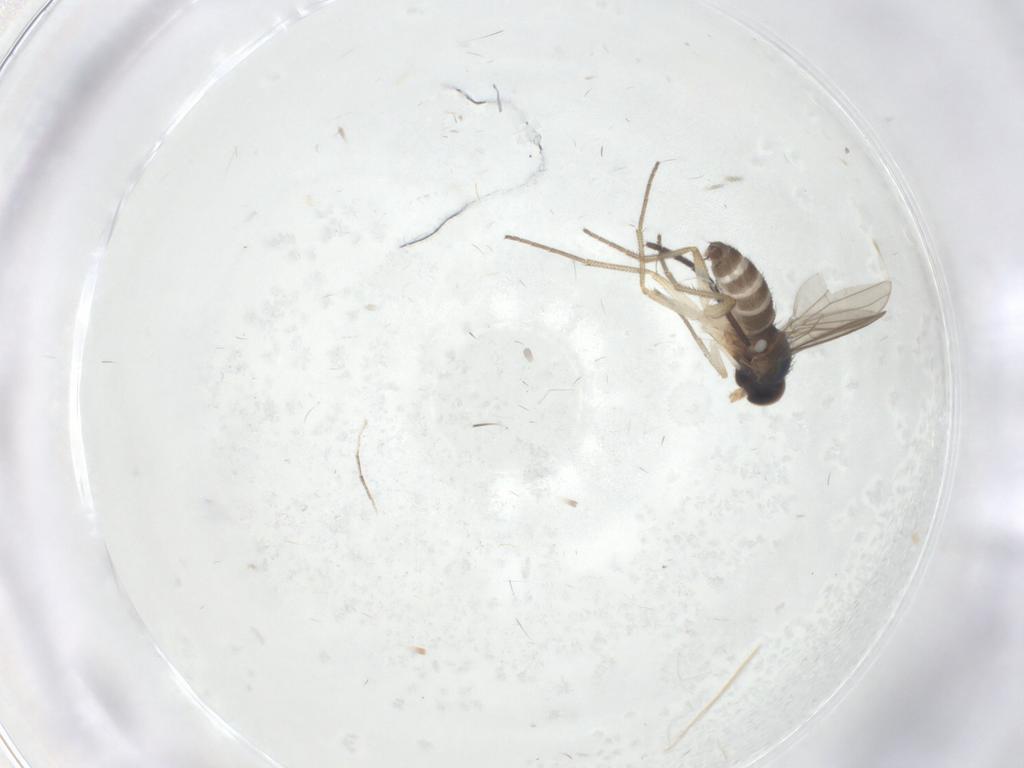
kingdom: Animalia
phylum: Arthropoda
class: Insecta
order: Diptera
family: Dolichopodidae
